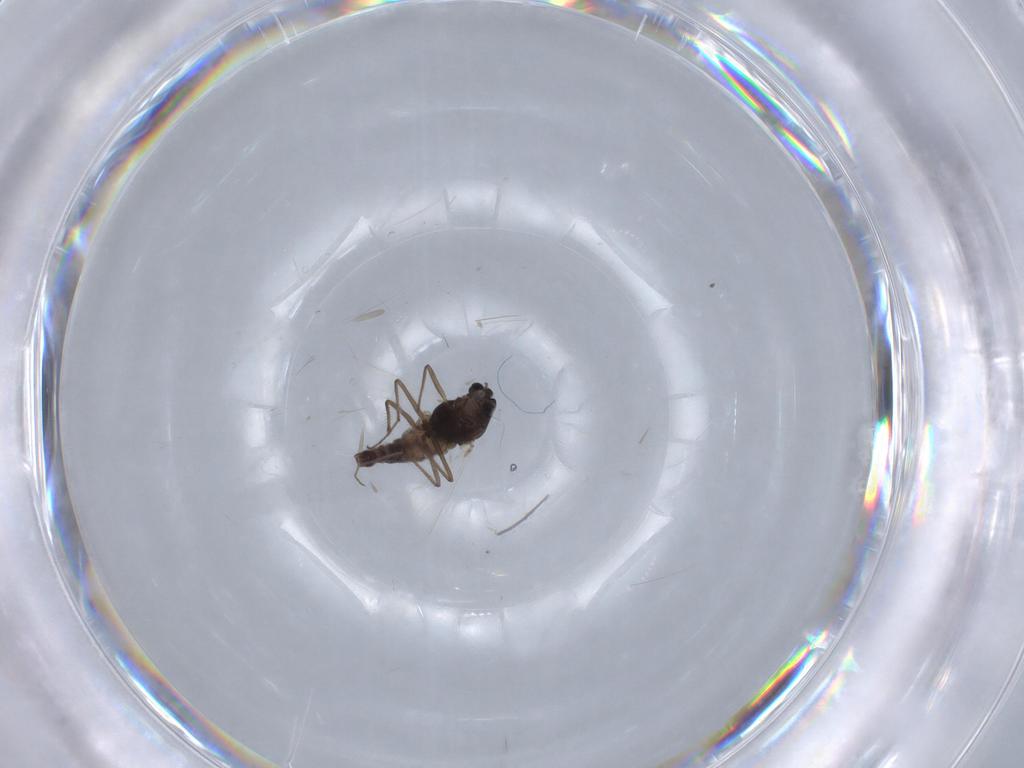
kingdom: Animalia
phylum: Arthropoda
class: Insecta
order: Diptera
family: Chironomidae
